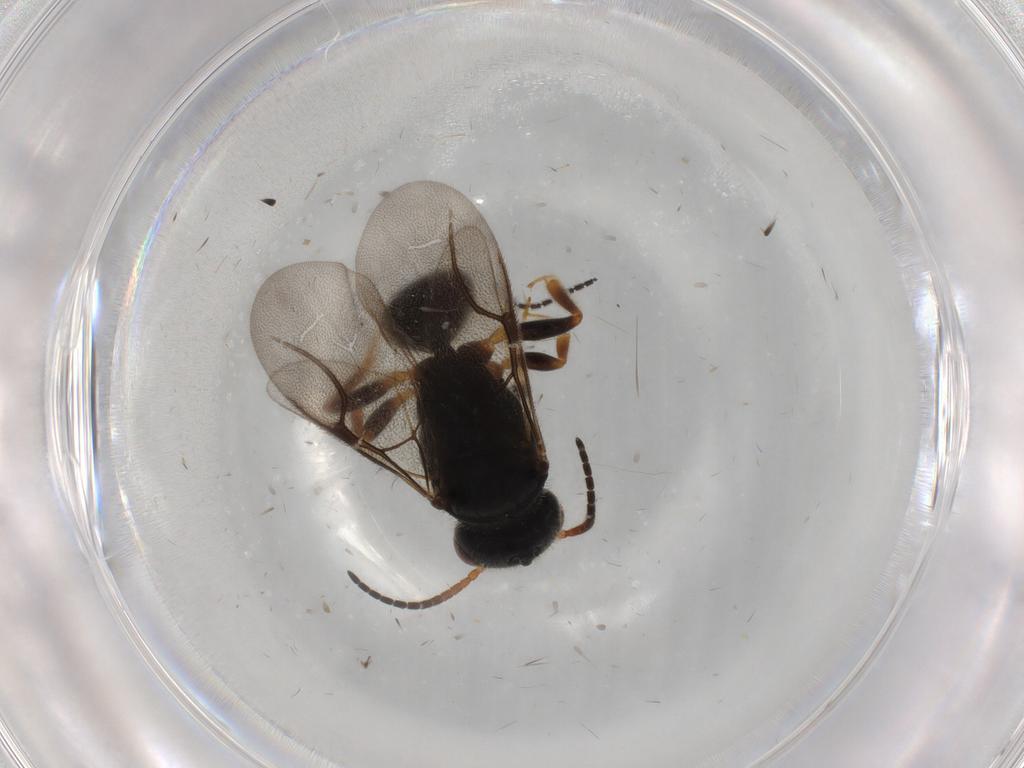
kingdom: Animalia
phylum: Arthropoda
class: Insecta
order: Hymenoptera
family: Bethylidae
